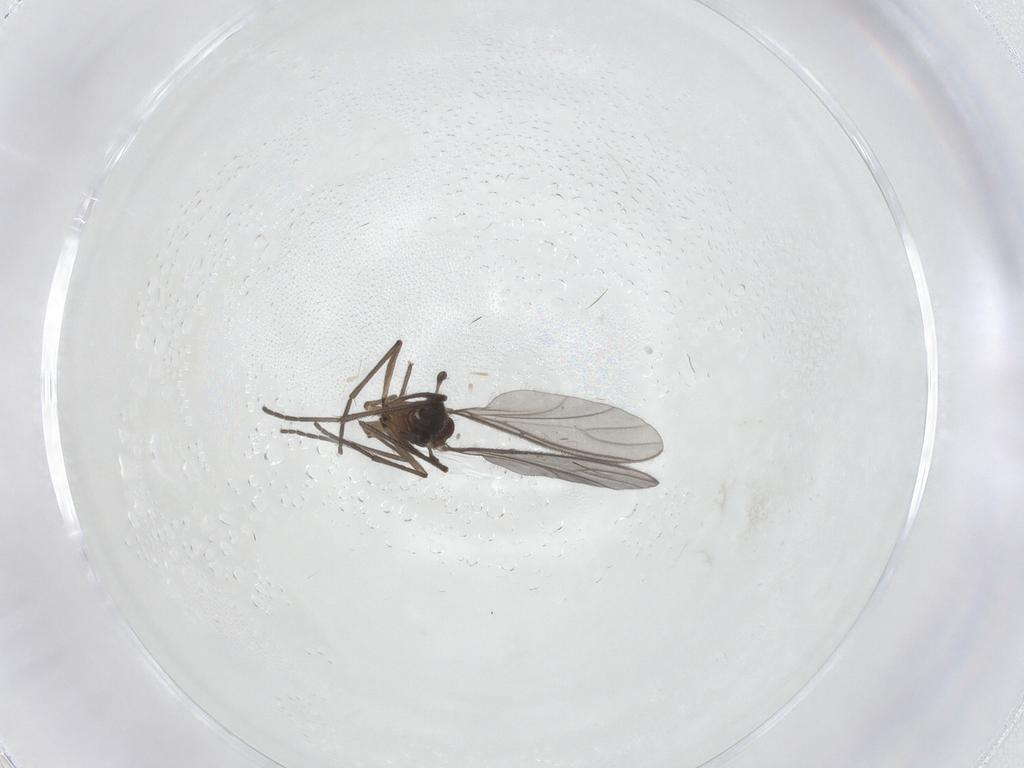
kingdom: Animalia
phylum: Arthropoda
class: Insecta
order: Diptera
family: Sciaridae
